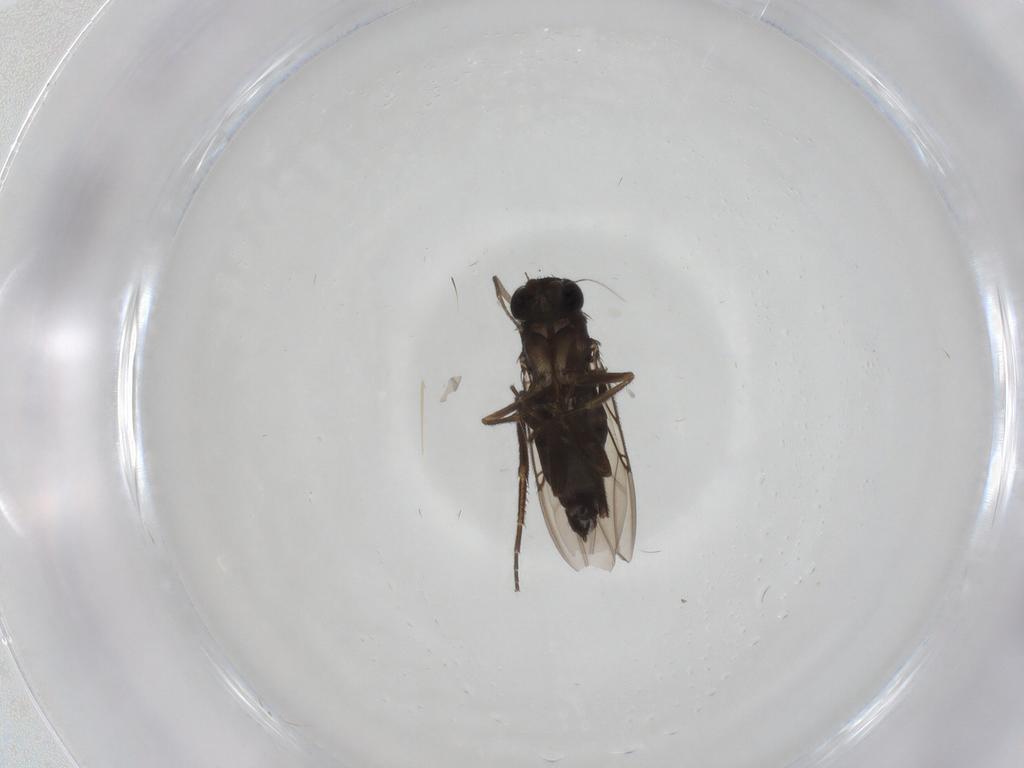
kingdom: Animalia
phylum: Arthropoda
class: Insecta
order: Diptera
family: Phoridae
